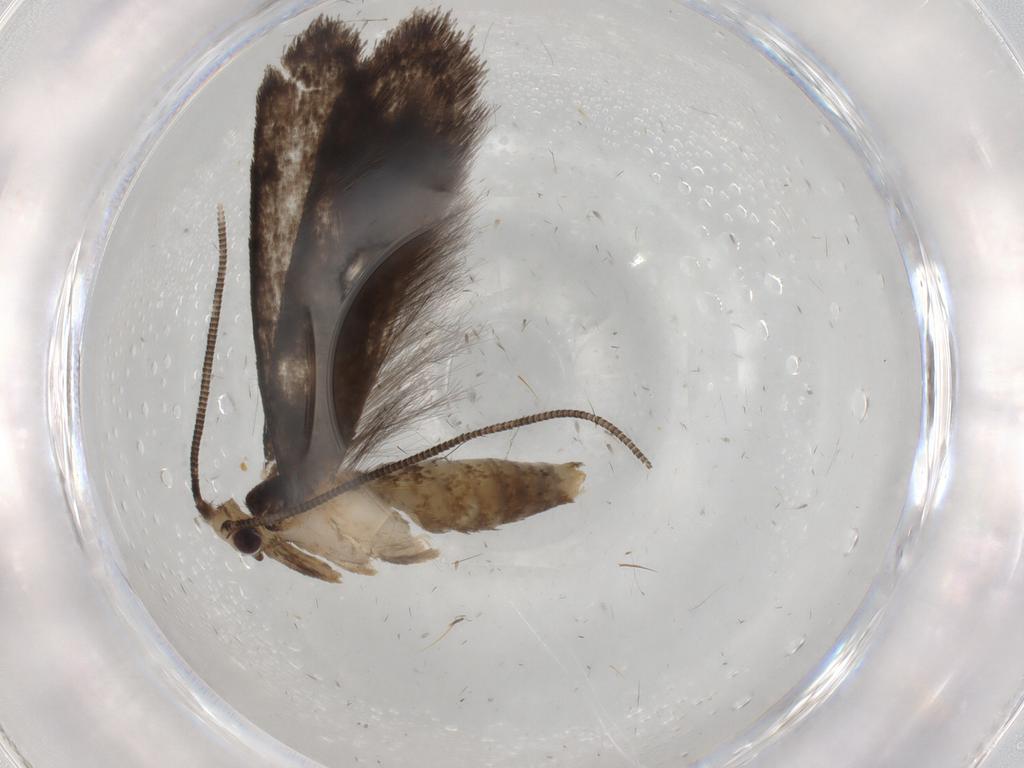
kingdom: Animalia
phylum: Arthropoda
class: Insecta
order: Lepidoptera
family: Tineidae
